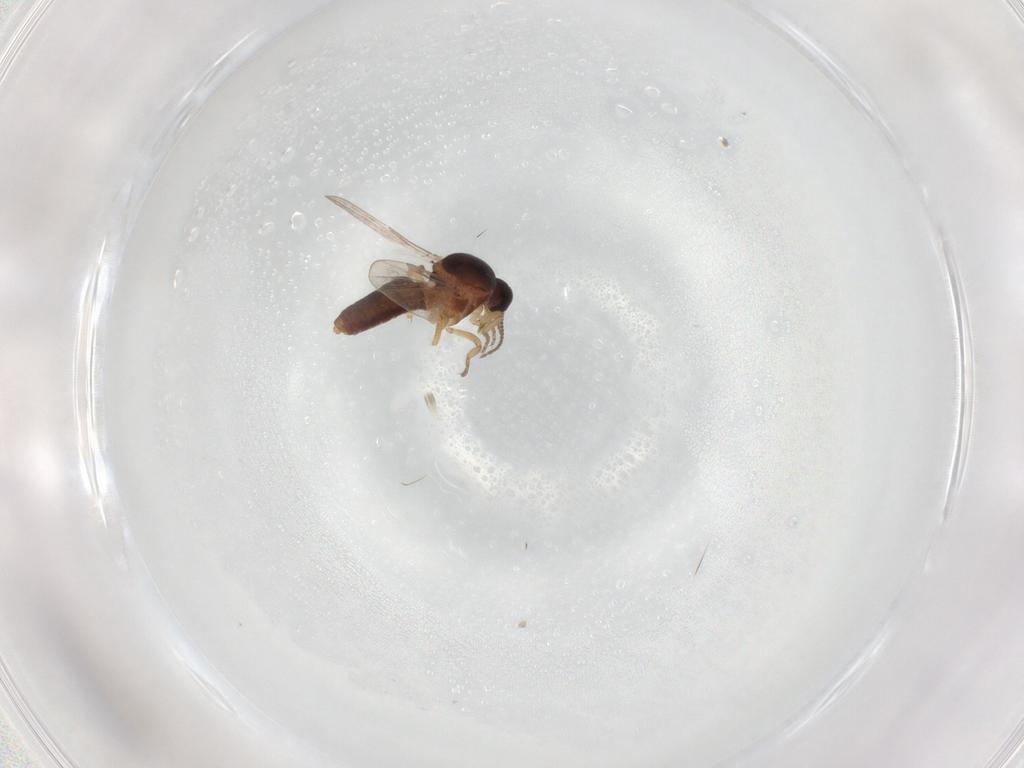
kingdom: Animalia
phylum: Arthropoda
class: Insecta
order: Diptera
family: Ceratopogonidae
